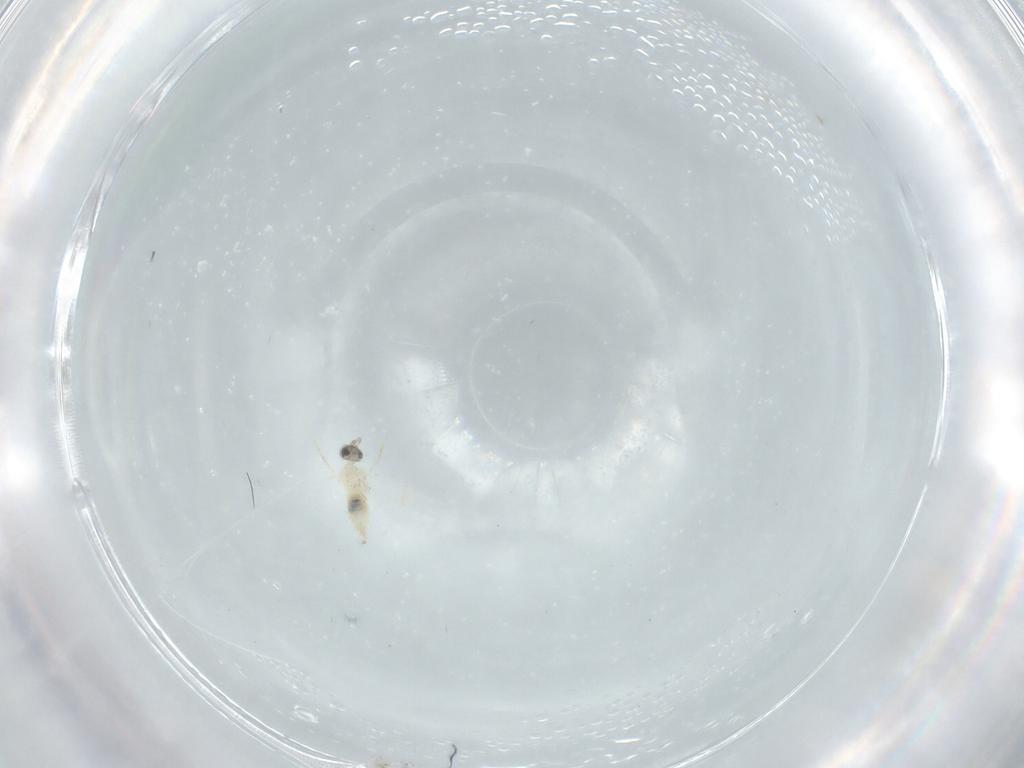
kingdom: Animalia
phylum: Arthropoda
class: Insecta
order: Diptera
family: Cecidomyiidae
